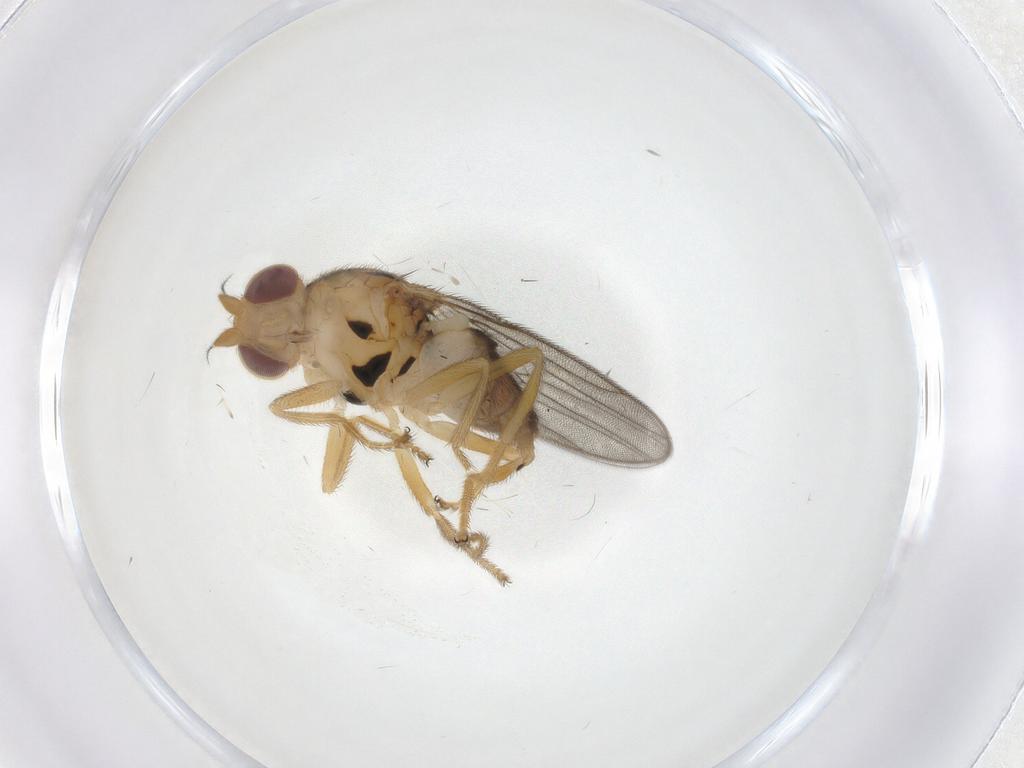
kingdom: Animalia
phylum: Arthropoda
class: Insecta
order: Diptera
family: Chloropidae
